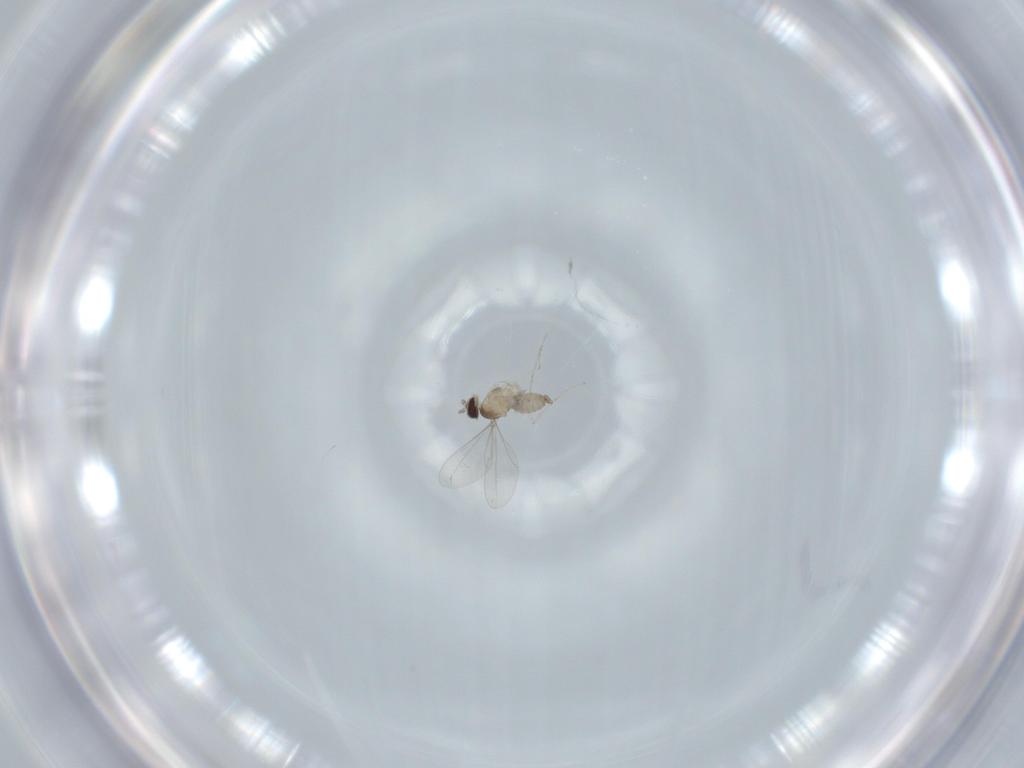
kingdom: Animalia
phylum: Arthropoda
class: Insecta
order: Diptera
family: Cecidomyiidae
